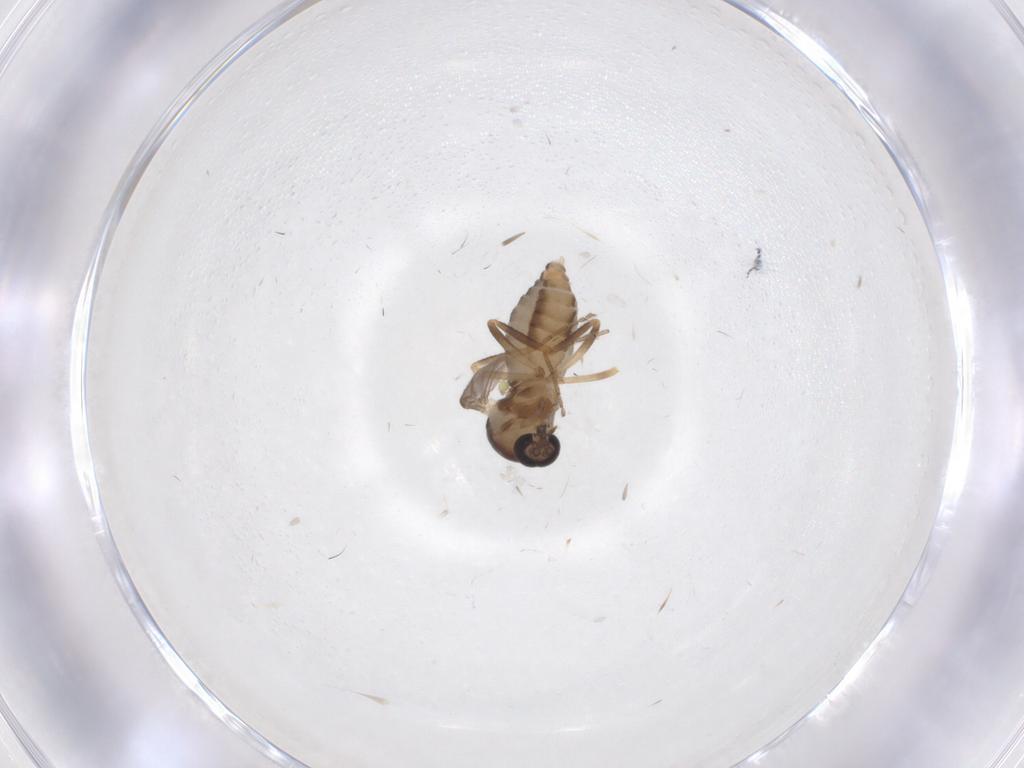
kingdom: Animalia
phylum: Arthropoda
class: Insecta
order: Diptera
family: Ceratopogonidae
